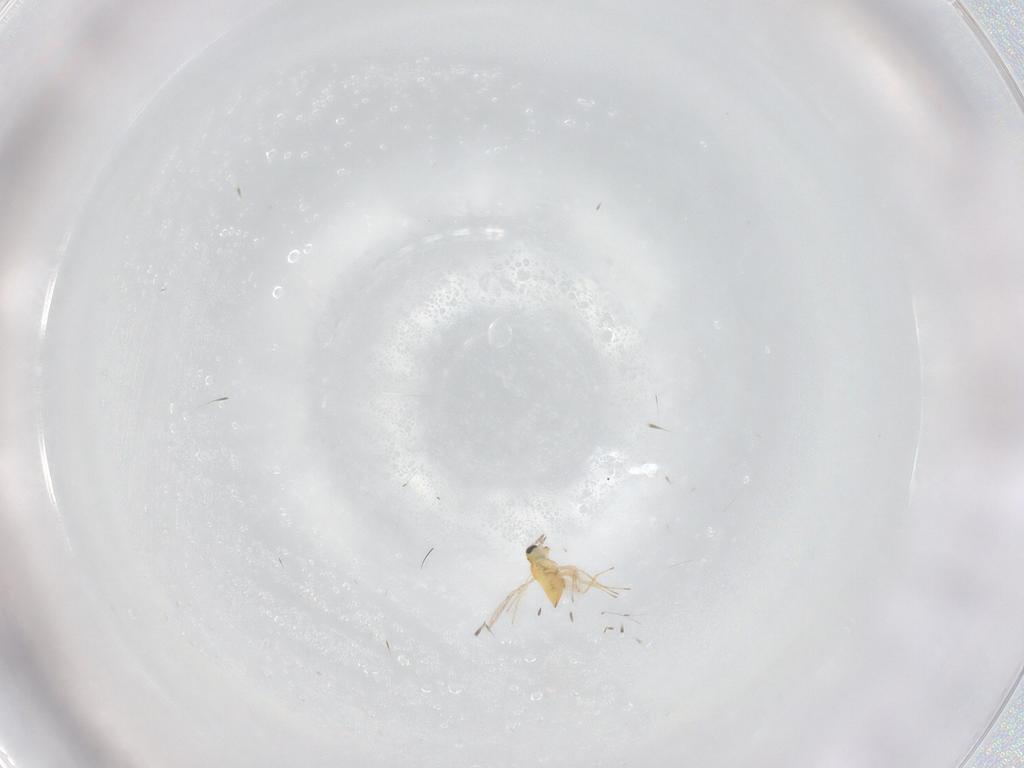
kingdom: Animalia
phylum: Arthropoda
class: Insecta
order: Hymenoptera
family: Trichogrammatidae
